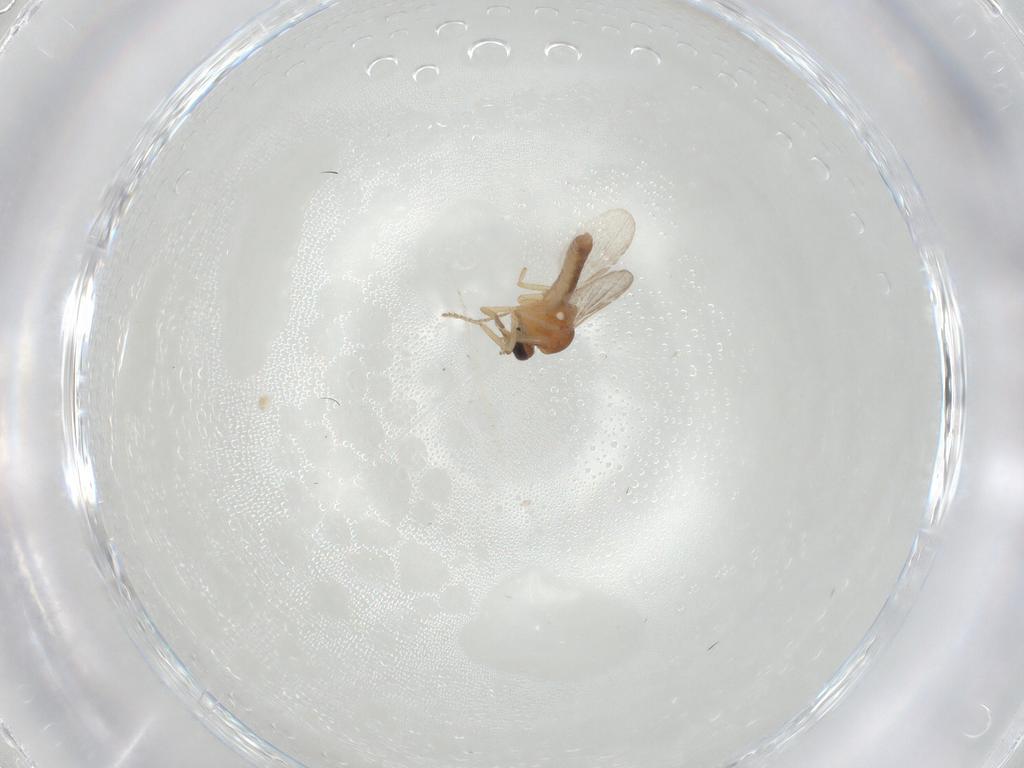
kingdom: Animalia
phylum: Arthropoda
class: Insecta
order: Diptera
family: Ceratopogonidae
